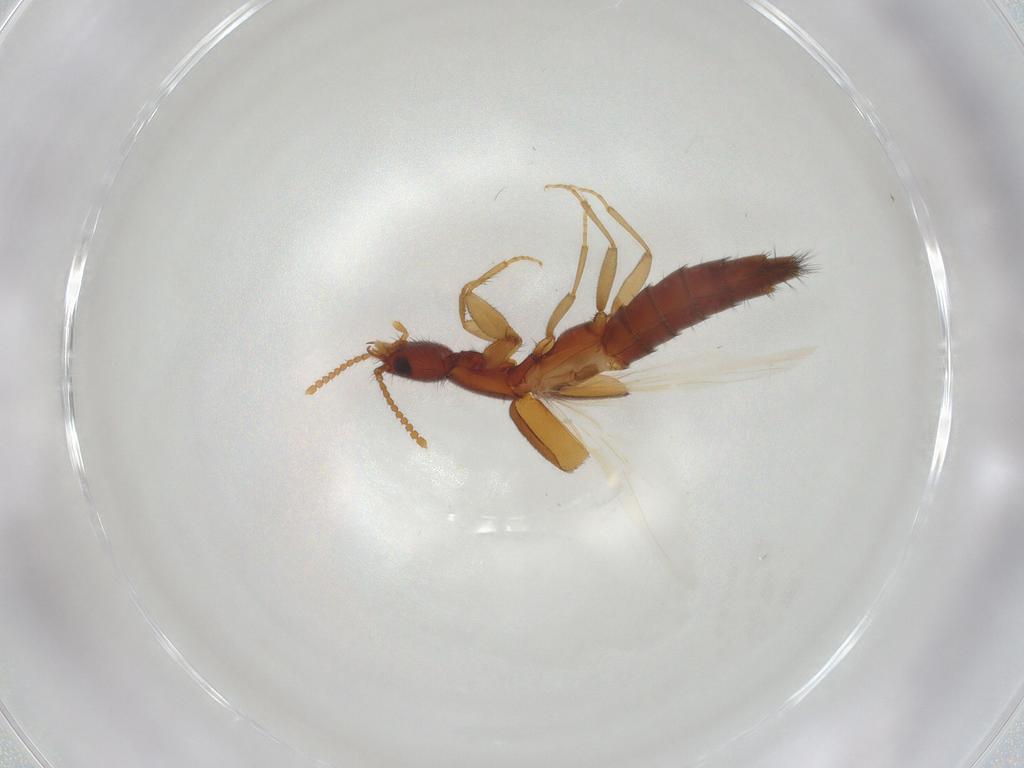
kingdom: Animalia
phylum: Arthropoda
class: Insecta
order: Coleoptera
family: Staphylinidae
